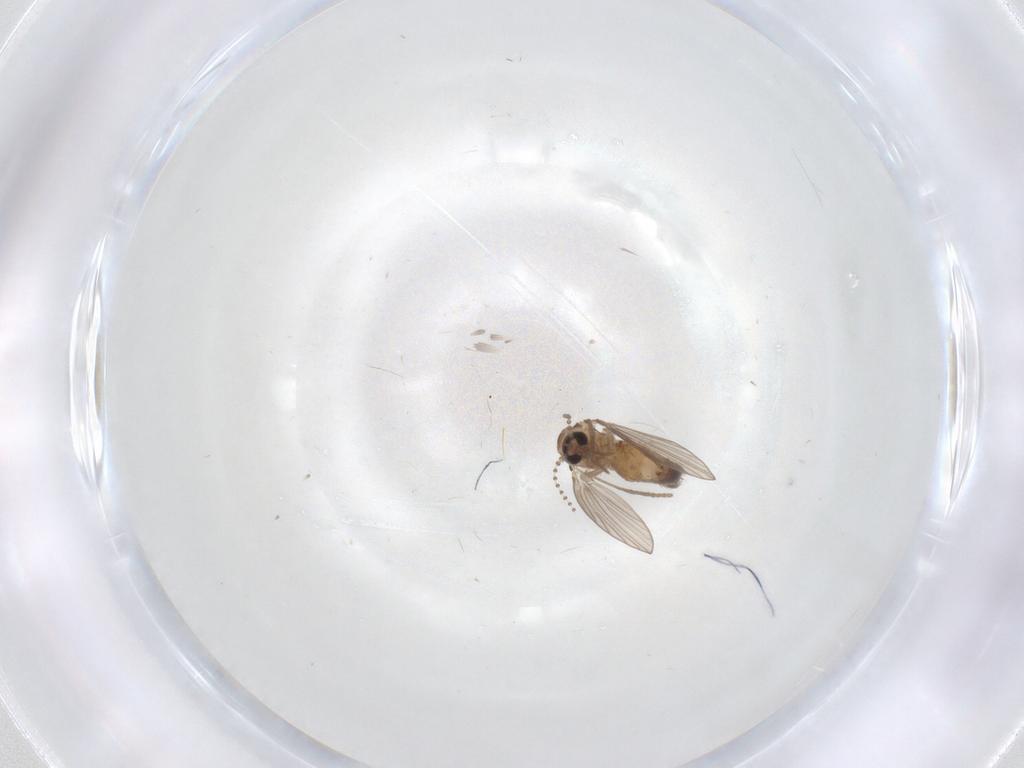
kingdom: Animalia
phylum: Arthropoda
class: Insecta
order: Diptera
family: Psychodidae
